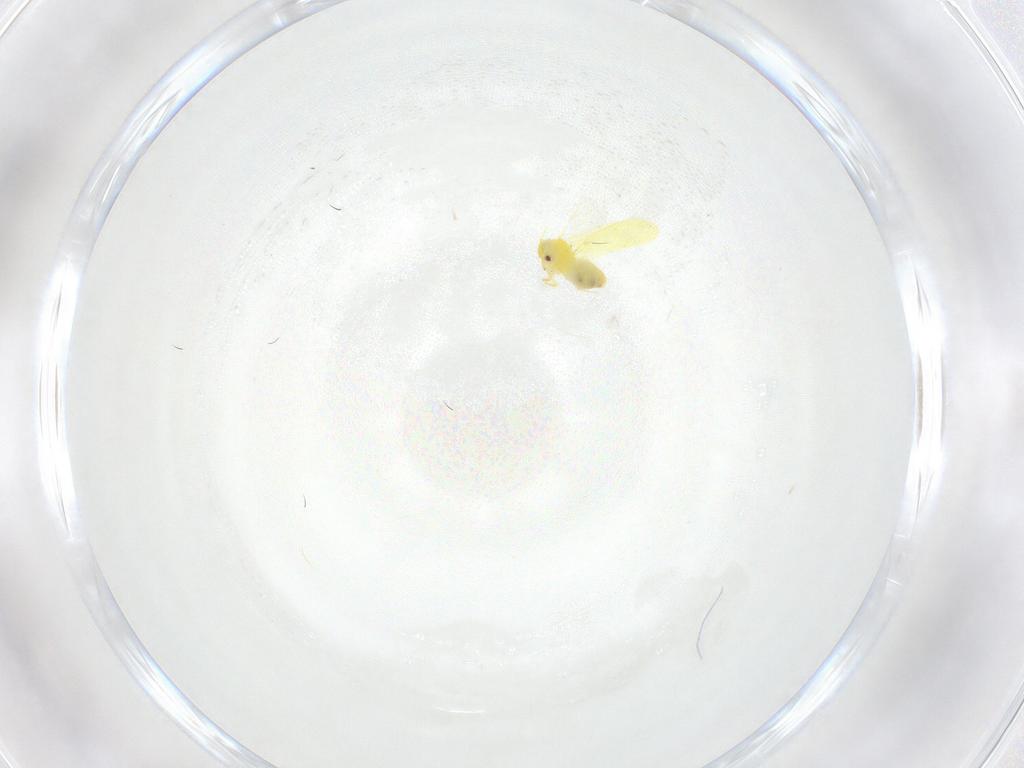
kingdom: Animalia
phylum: Arthropoda
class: Insecta
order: Hemiptera
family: Aleyrodidae
